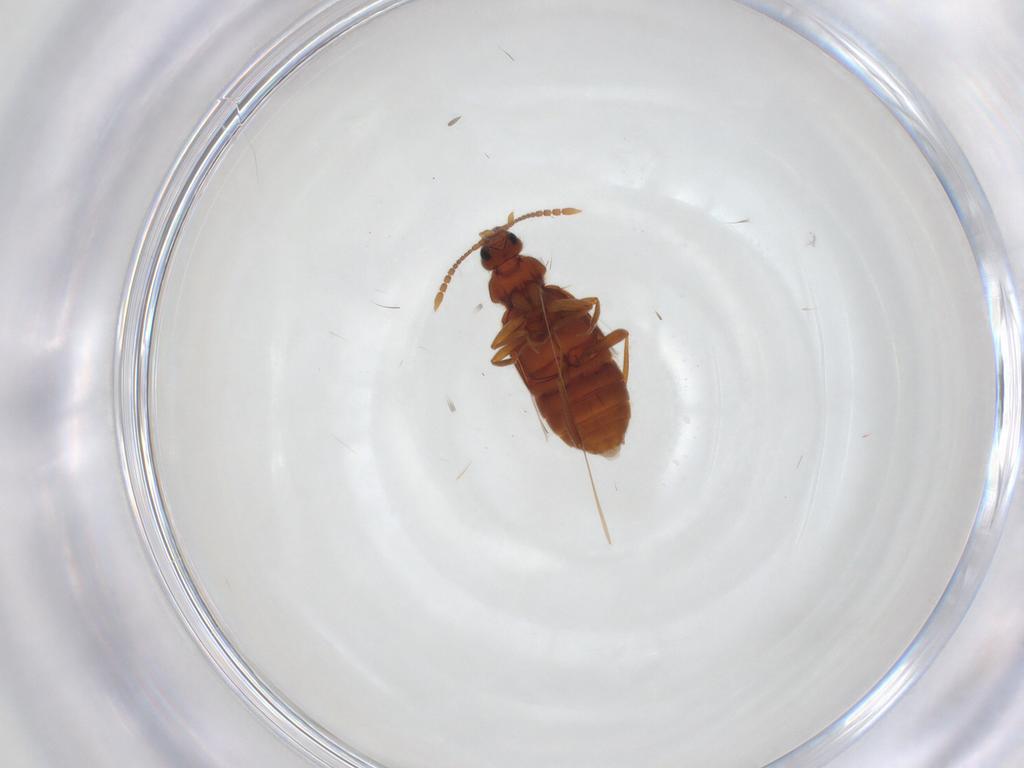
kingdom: Animalia
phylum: Arthropoda
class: Insecta
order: Coleoptera
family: Staphylinidae
